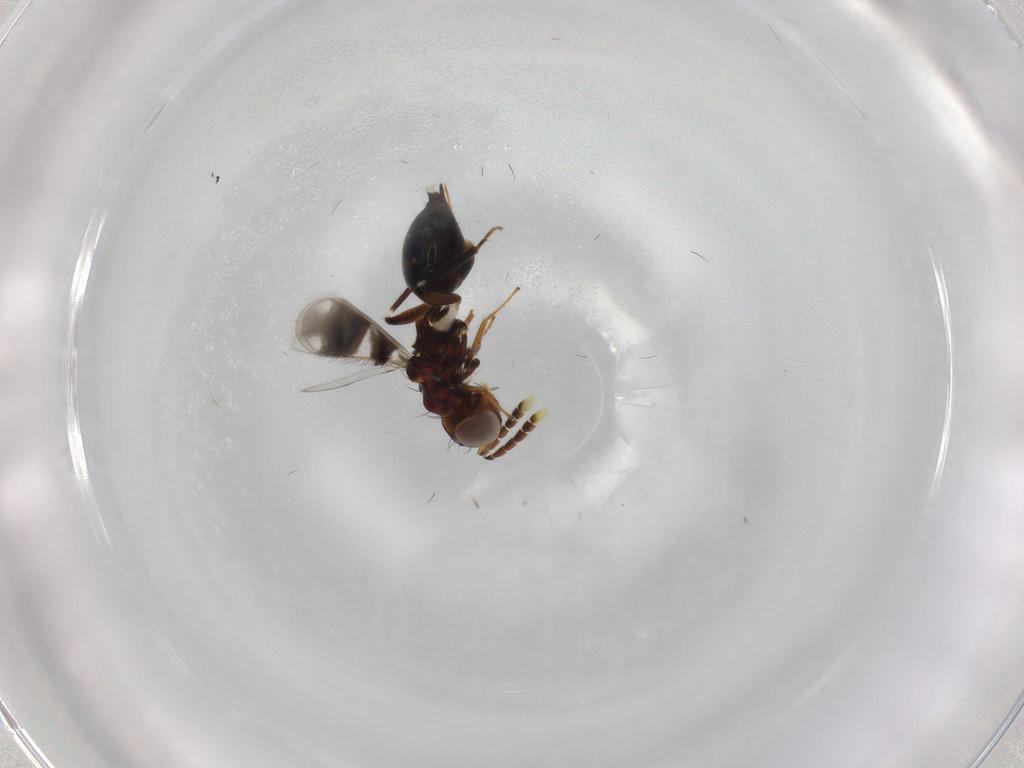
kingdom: Animalia
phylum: Arthropoda
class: Insecta
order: Hymenoptera
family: Eulophidae
